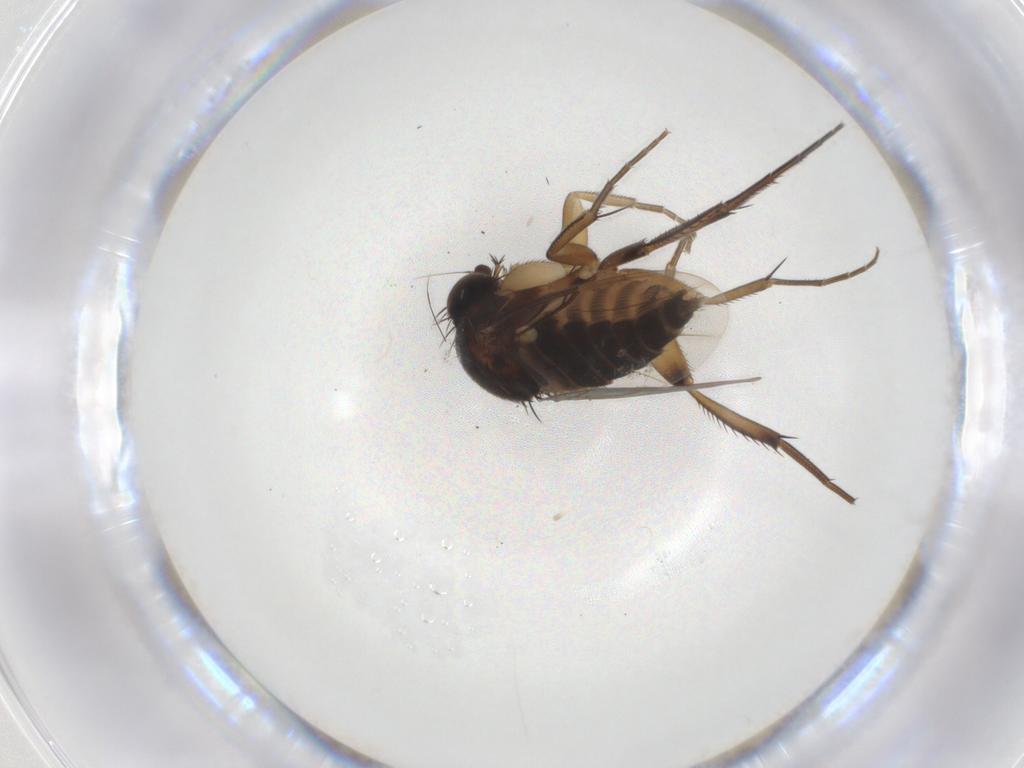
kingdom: Animalia
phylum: Arthropoda
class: Insecta
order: Diptera
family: Phoridae
